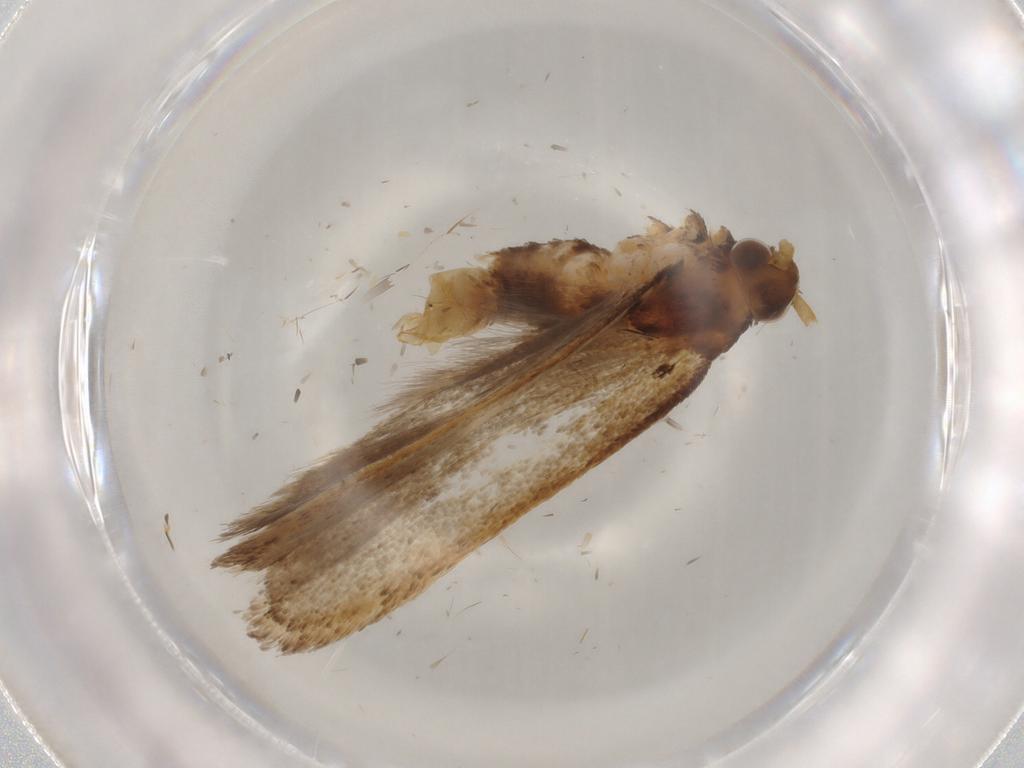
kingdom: Animalia
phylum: Arthropoda
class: Insecta
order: Lepidoptera
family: Lecithoceridae
